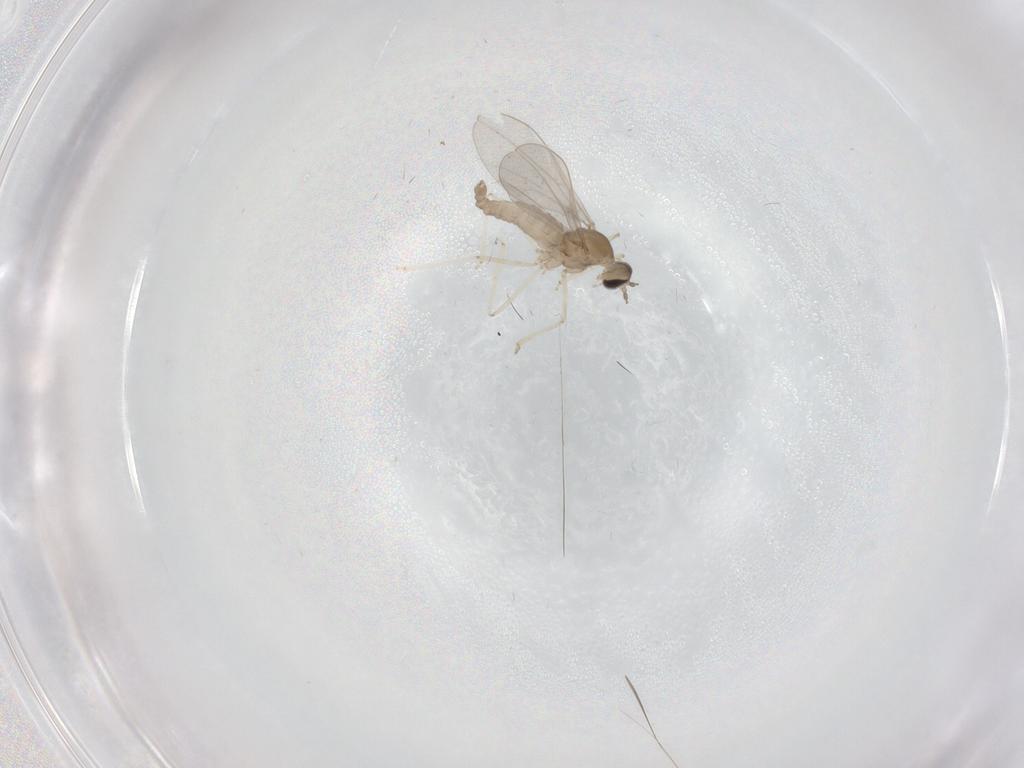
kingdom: Animalia
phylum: Arthropoda
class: Insecta
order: Diptera
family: Cecidomyiidae
